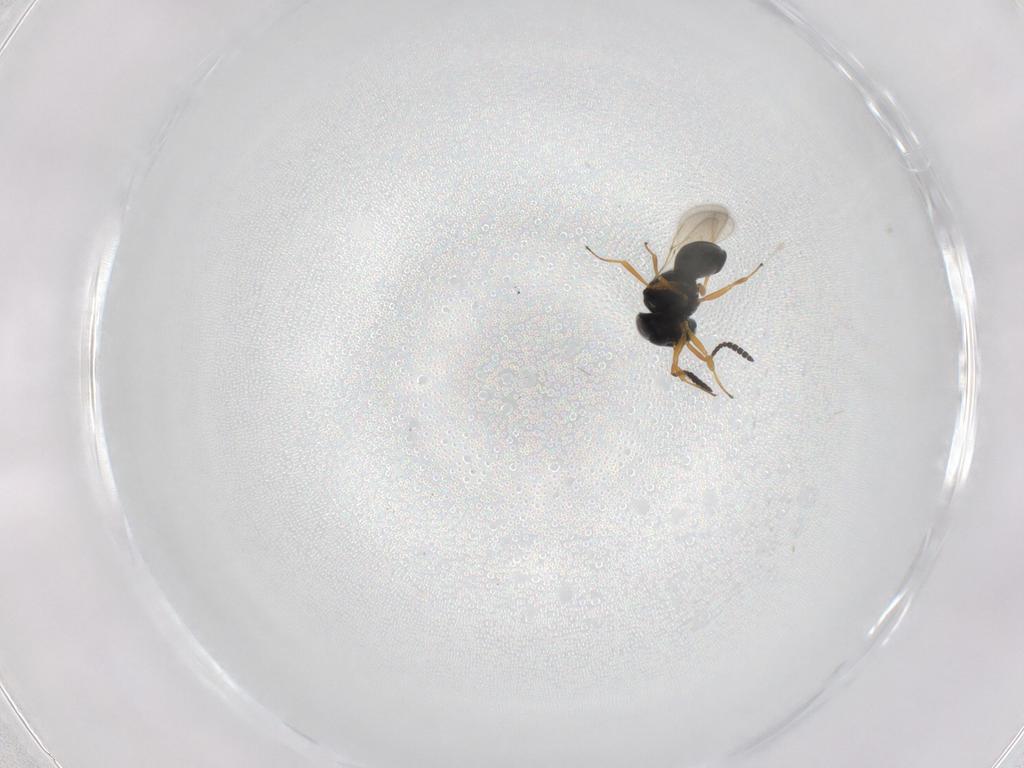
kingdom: Animalia
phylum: Arthropoda
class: Insecta
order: Hymenoptera
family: Scelionidae
